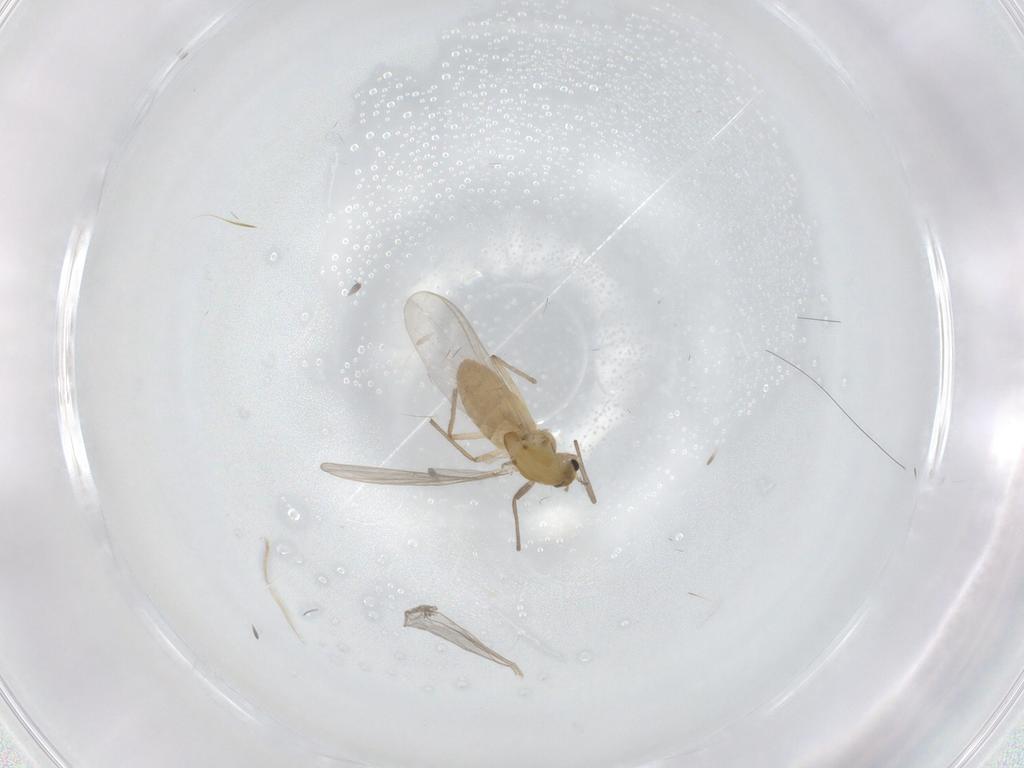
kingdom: Animalia
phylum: Arthropoda
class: Insecta
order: Diptera
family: Chironomidae
